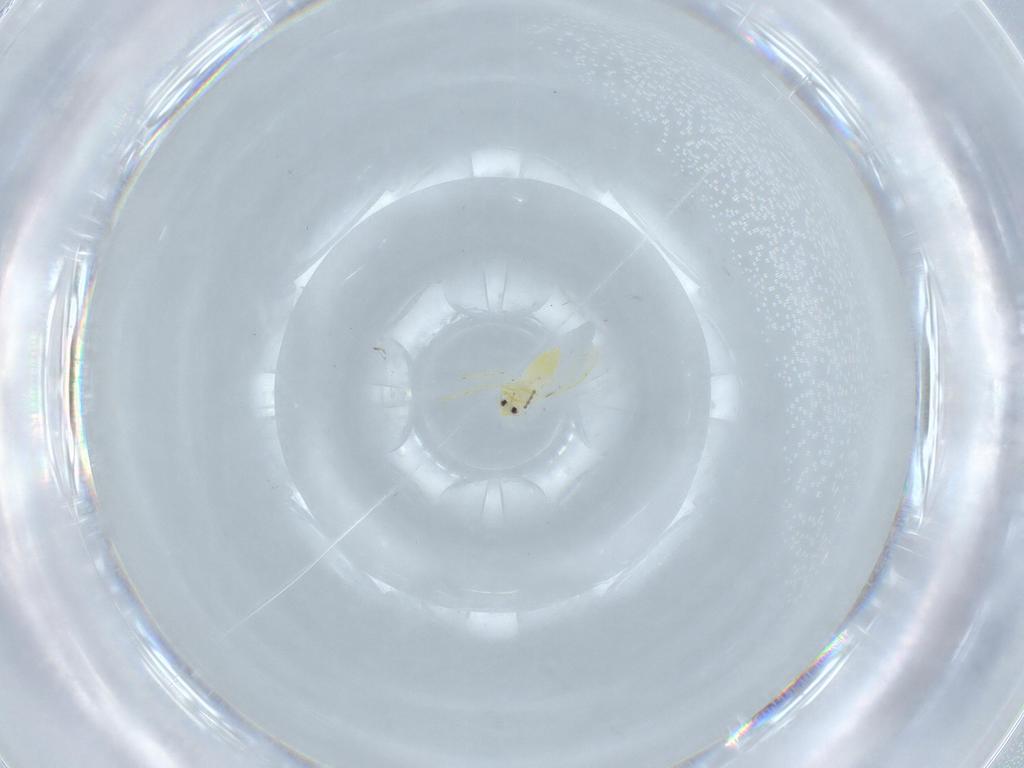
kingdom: Animalia
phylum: Arthropoda
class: Insecta
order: Hemiptera
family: Aleyrodidae
